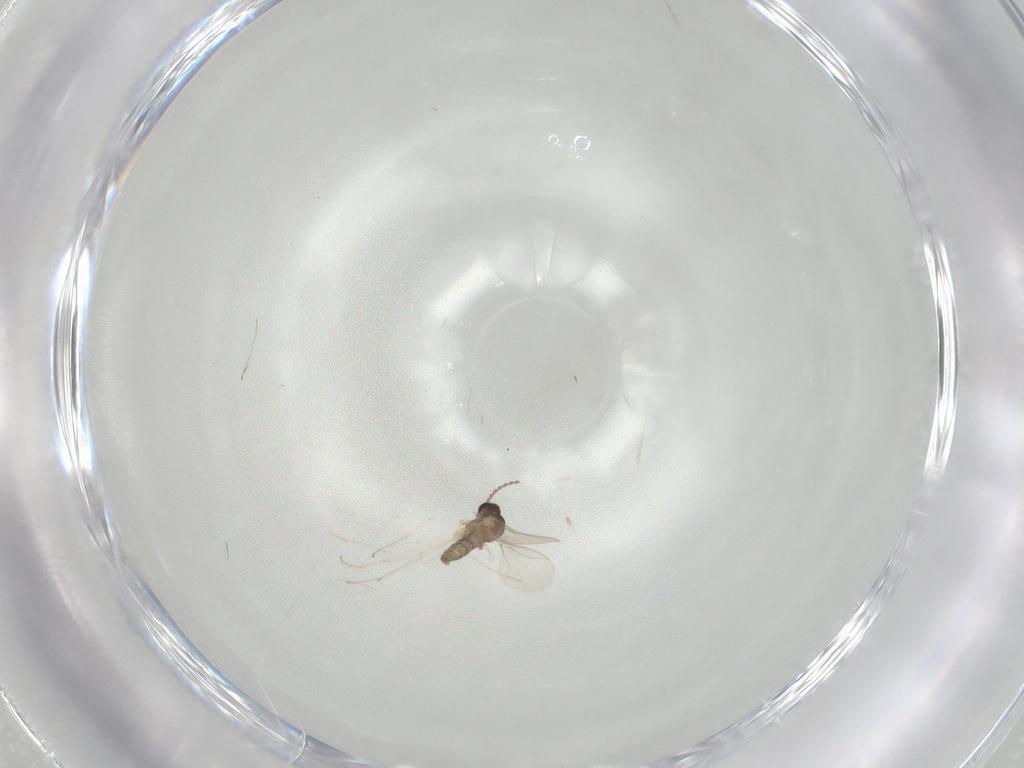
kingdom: Animalia
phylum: Arthropoda
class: Insecta
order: Diptera
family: Cecidomyiidae
